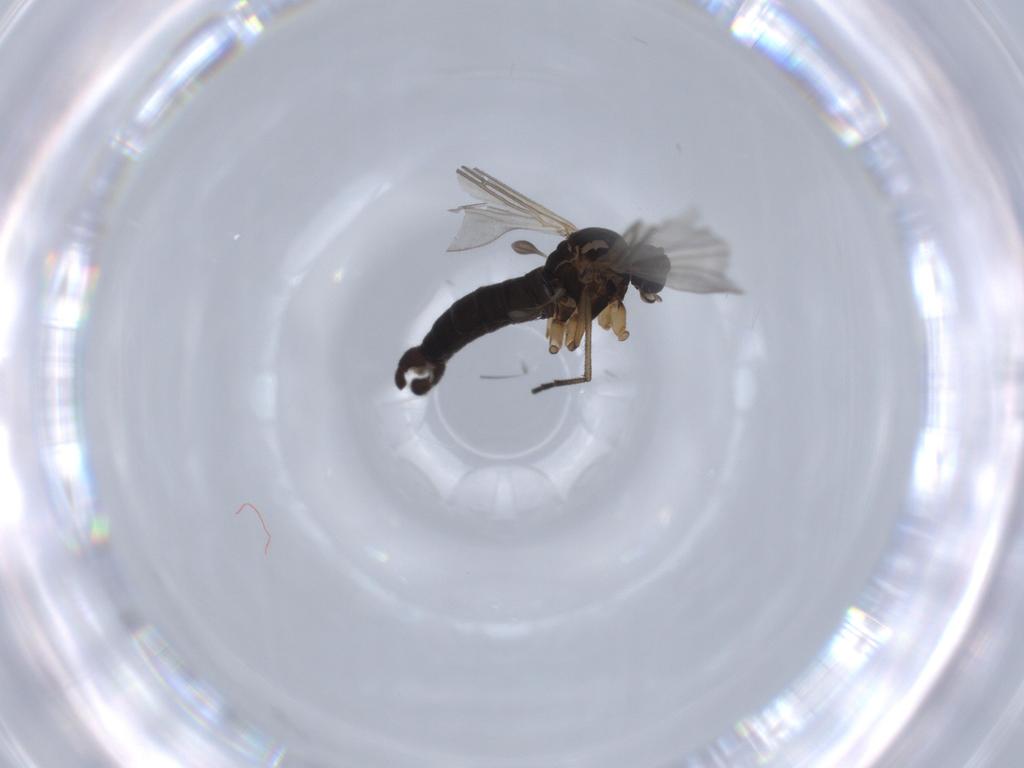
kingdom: Animalia
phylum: Arthropoda
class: Insecta
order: Diptera
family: Sciaridae
